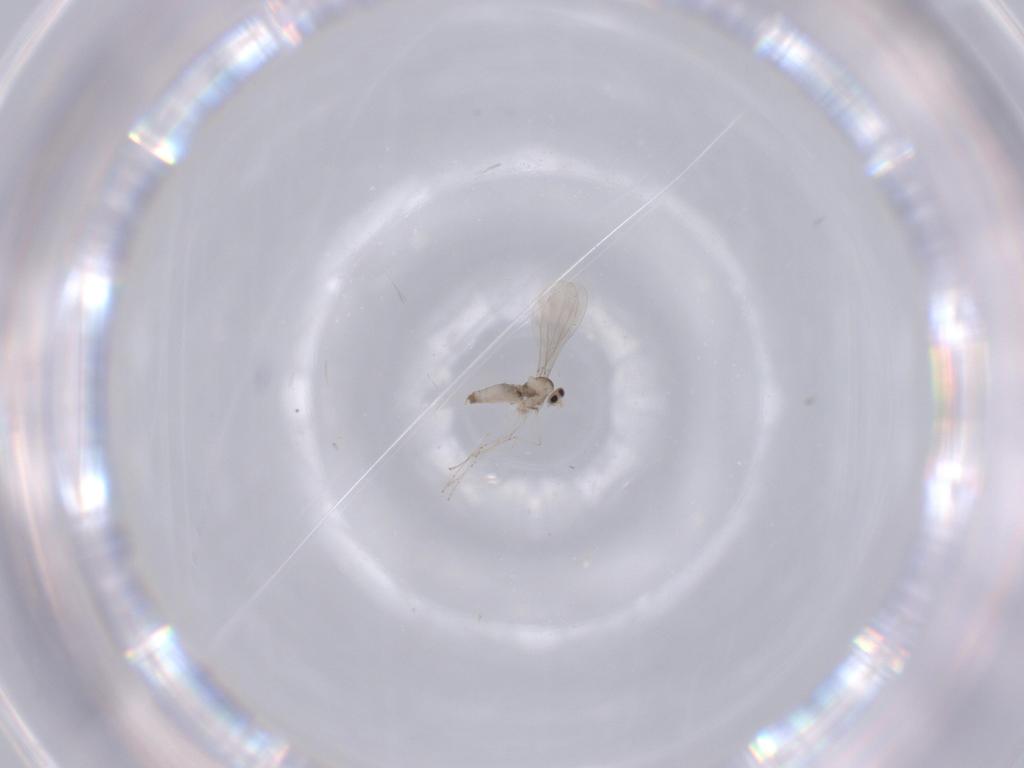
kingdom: Animalia
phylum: Arthropoda
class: Insecta
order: Diptera
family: Cecidomyiidae
